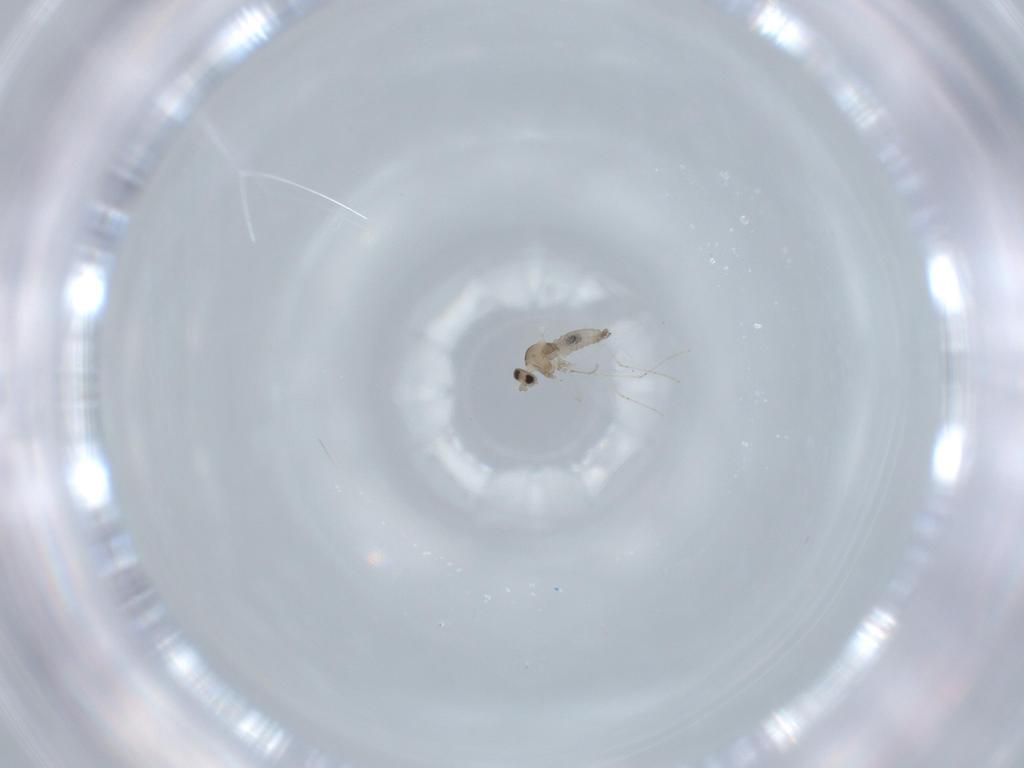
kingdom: Animalia
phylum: Arthropoda
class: Insecta
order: Diptera
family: Cecidomyiidae
